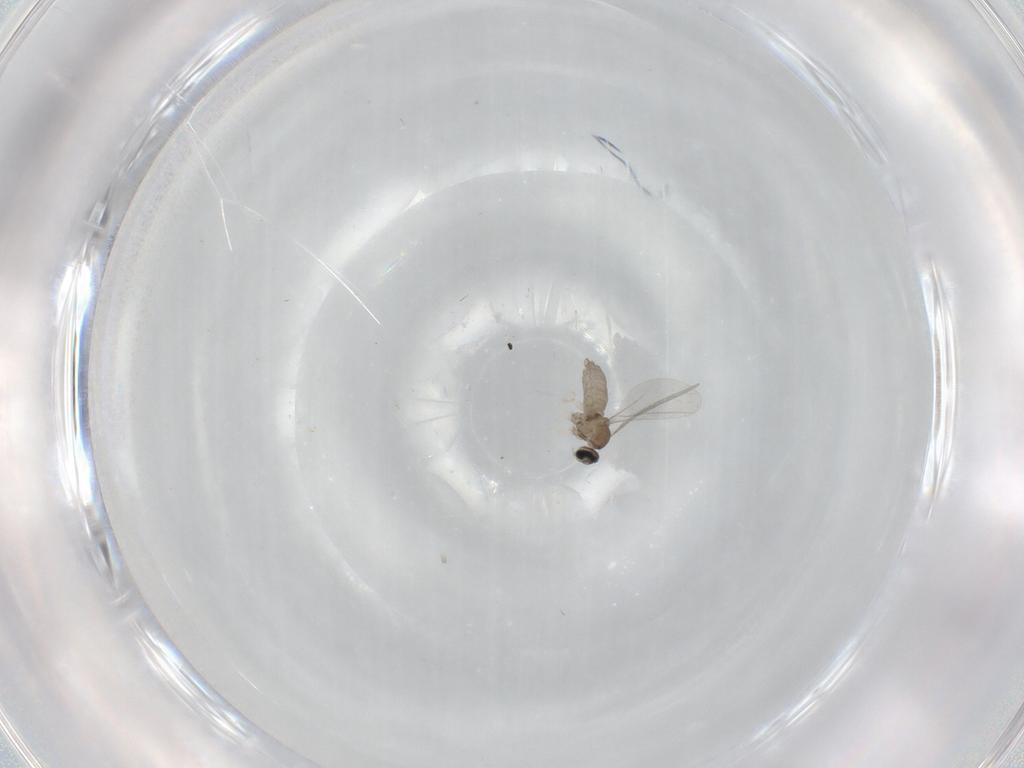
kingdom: Animalia
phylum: Arthropoda
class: Insecta
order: Diptera
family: Cecidomyiidae
